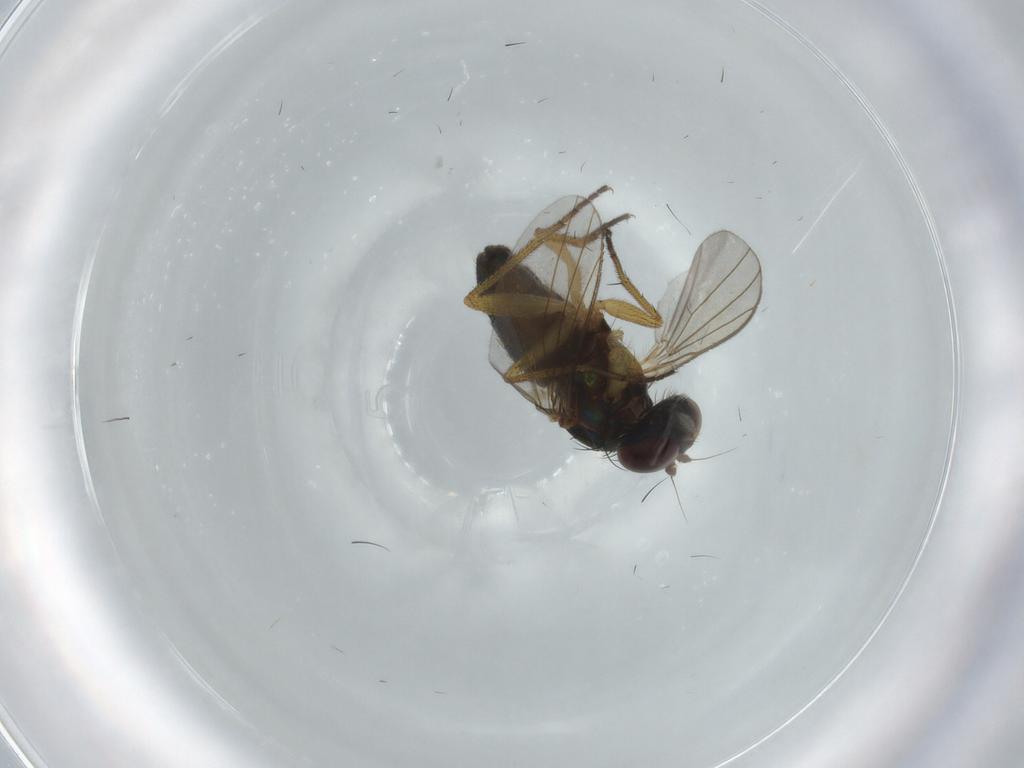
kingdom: Animalia
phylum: Arthropoda
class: Insecta
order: Diptera
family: Dolichopodidae
